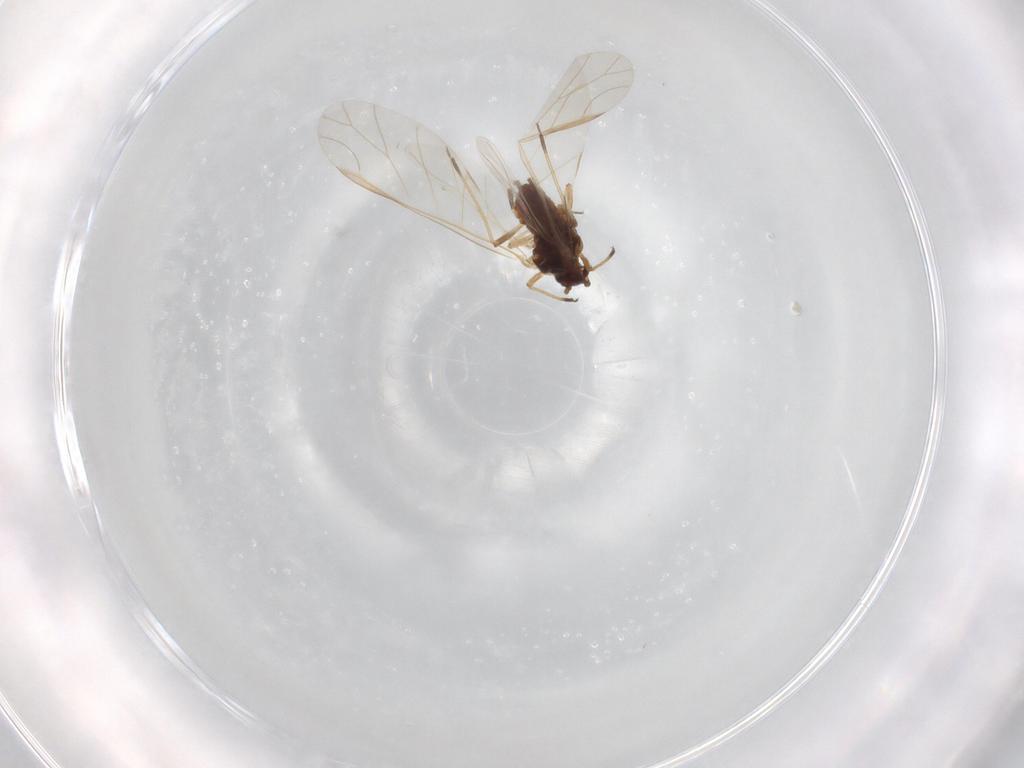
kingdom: Animalia
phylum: Arthropoda
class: Insecta
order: Hemiptera
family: Aphididae
